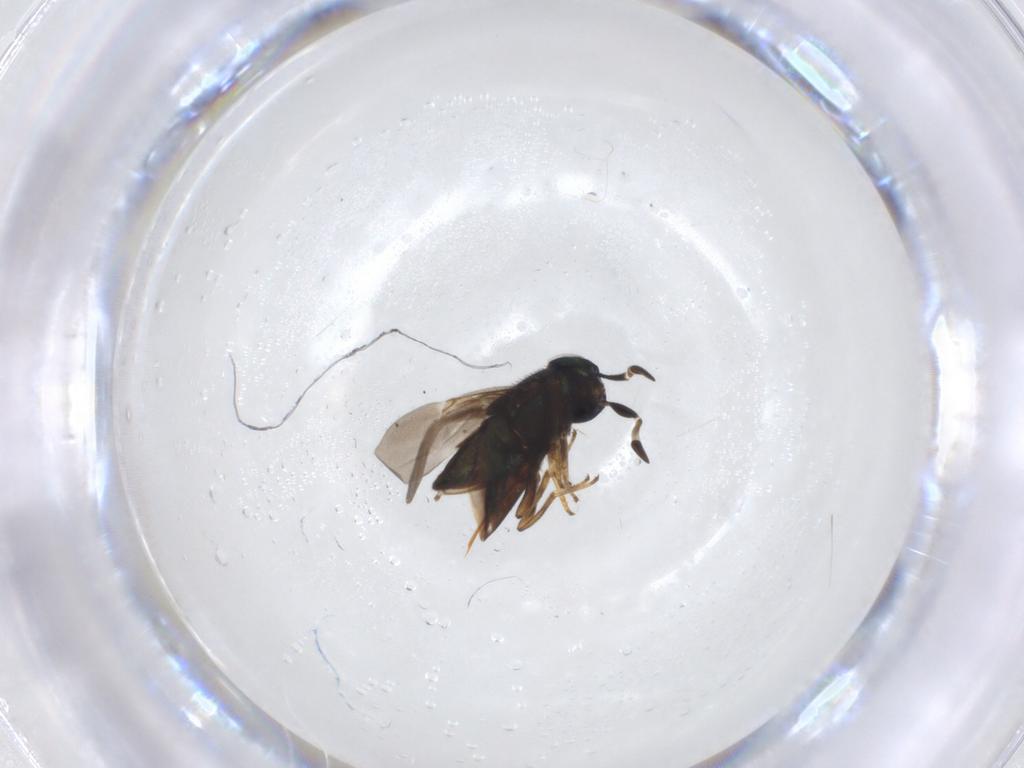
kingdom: Animalia
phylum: Arthropoda
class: Insecta
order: Hymenoptera
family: Encyrtidae
